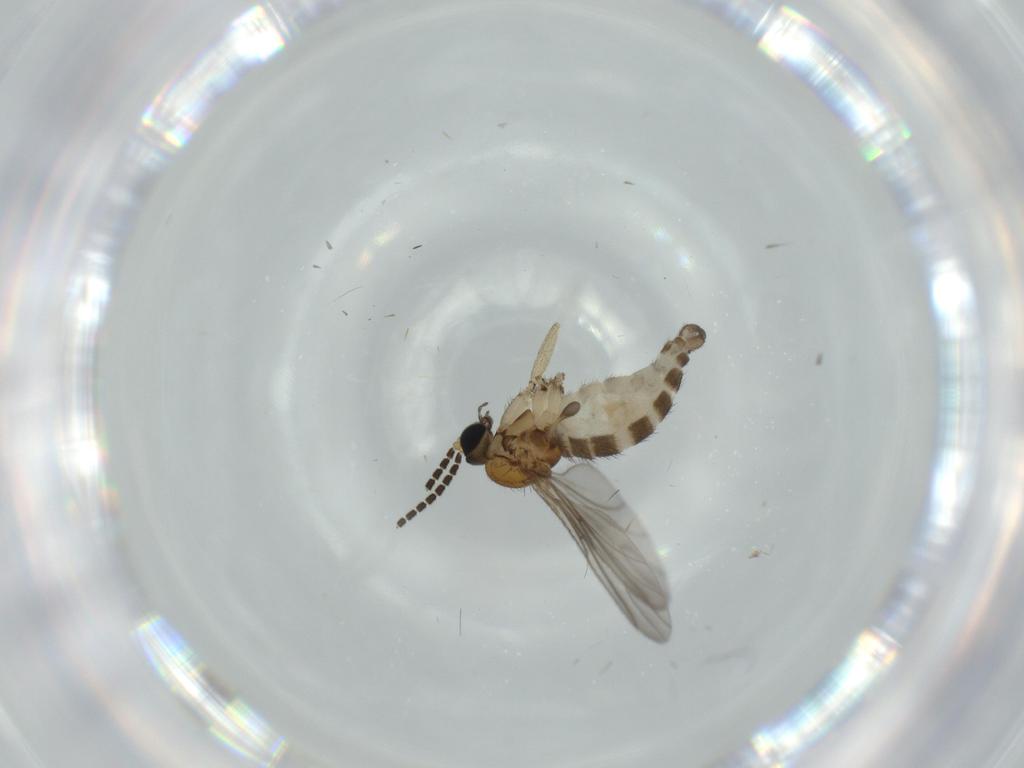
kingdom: Animalia
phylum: Arthropoda
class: Insecta
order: Diptera
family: Sciaridae
